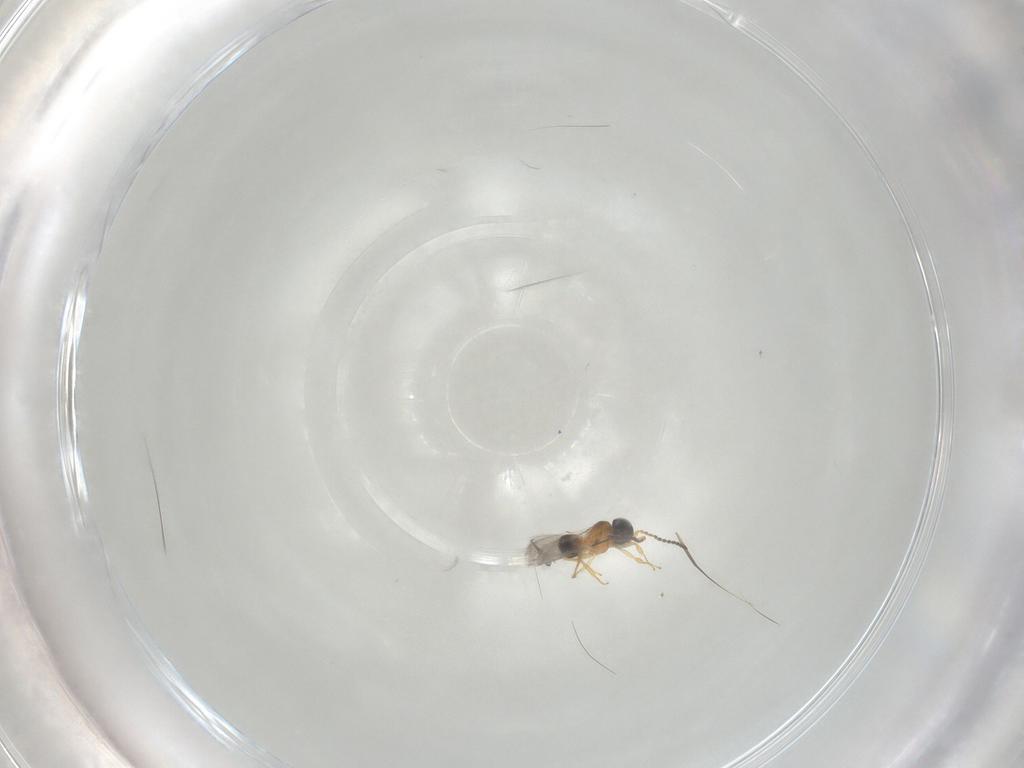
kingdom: Animalia
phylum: Arthropoda
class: Insecta
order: Hymenoptera
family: Scelionidae
